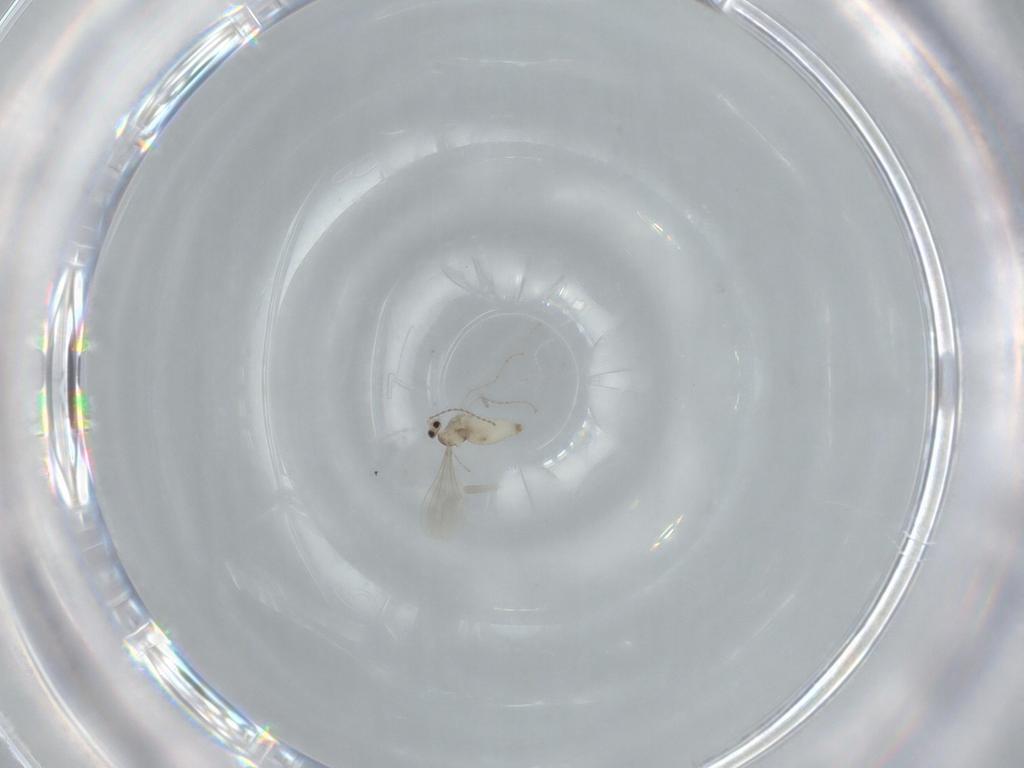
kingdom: Animalia
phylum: Arthropoda
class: Insecta
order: Diptera
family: Cecidomyiidae
